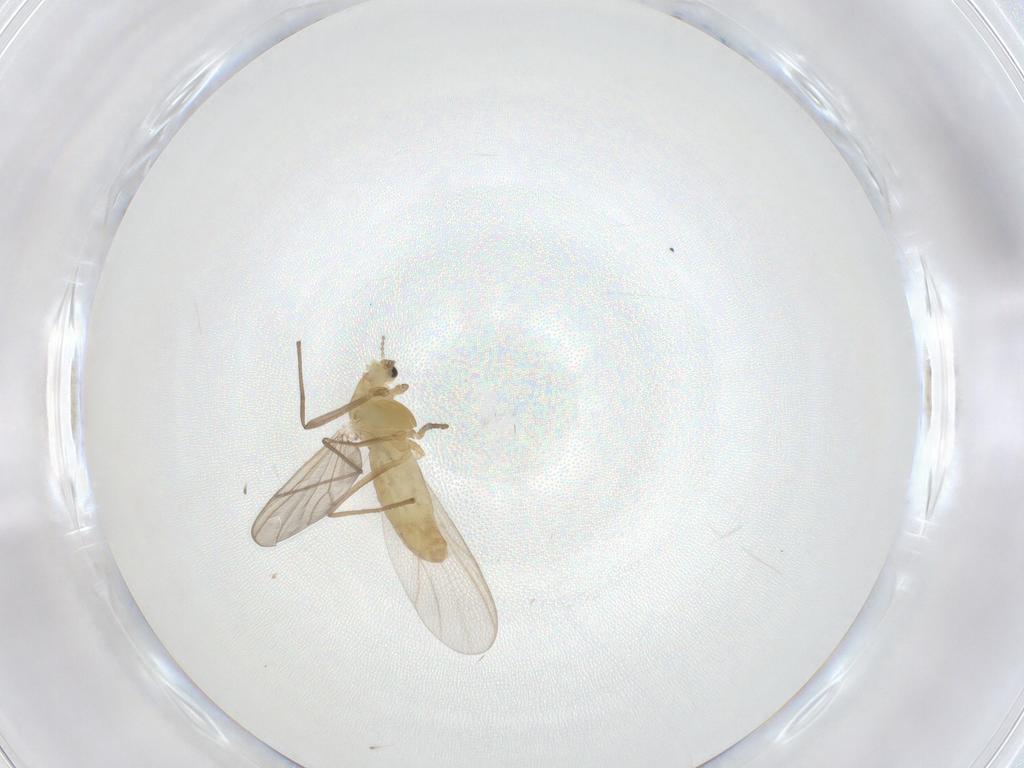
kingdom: Animalia
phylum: Arthropoda
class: Insecta
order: Diptera
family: Chironomidae
